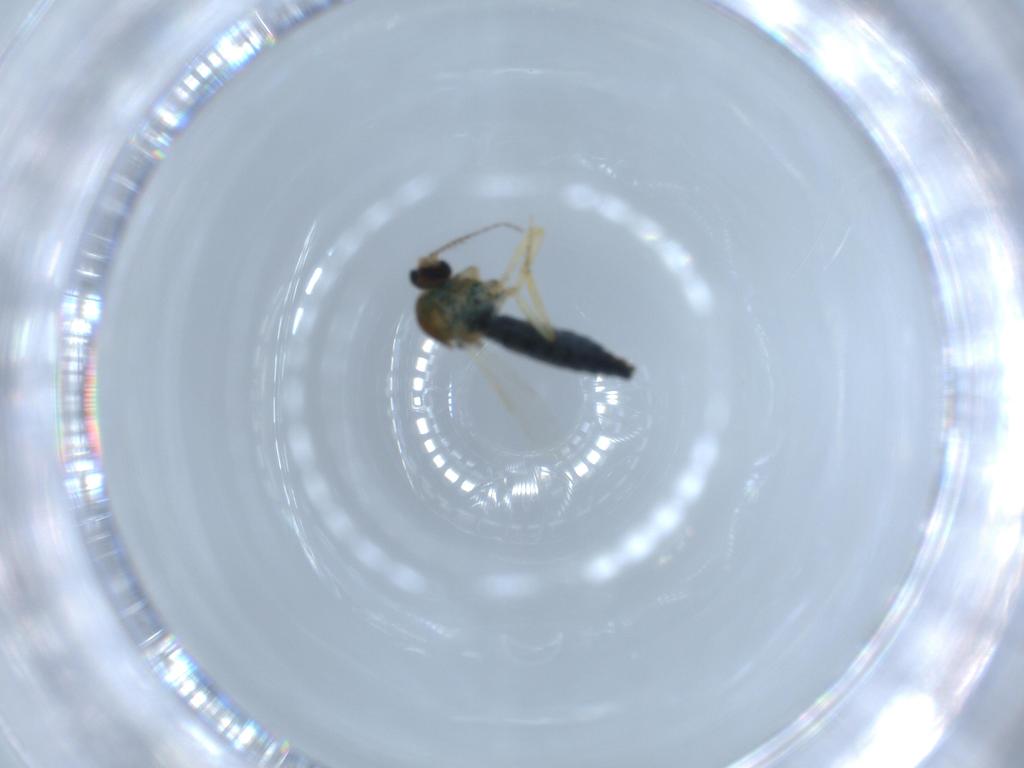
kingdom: Animalia
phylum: Arthropoda
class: Insecta
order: Diptera
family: Ceratopogonidae
